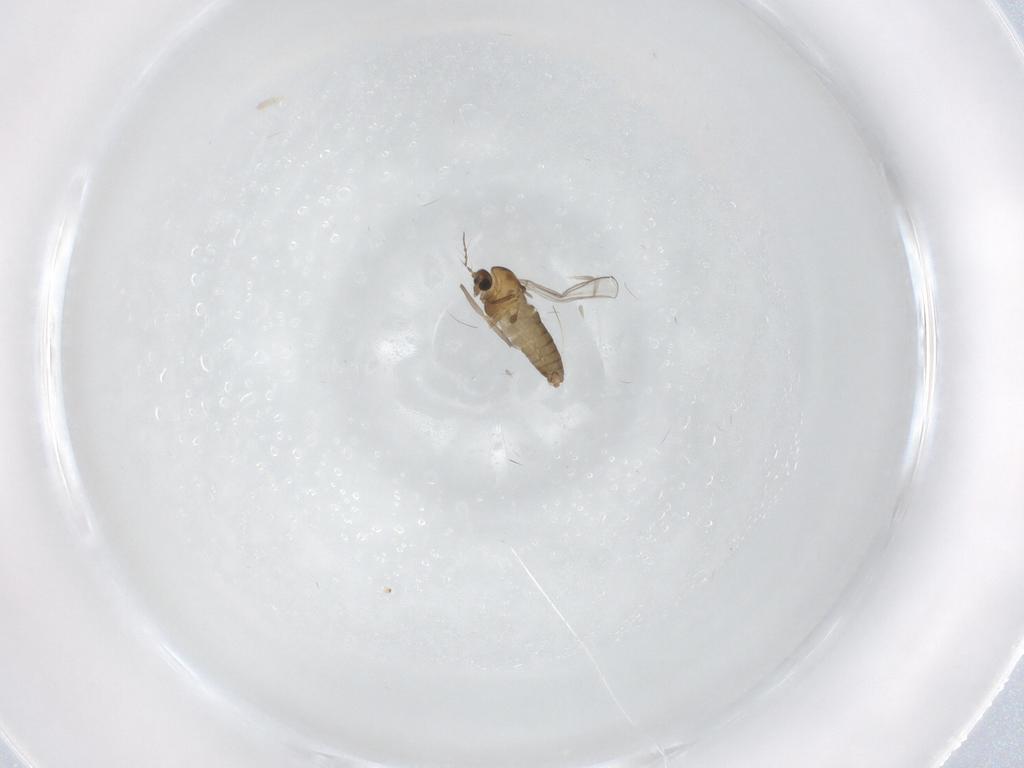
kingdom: Animalia
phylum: Arthropoda
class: Insecta
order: Diptera
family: Chironomidae
